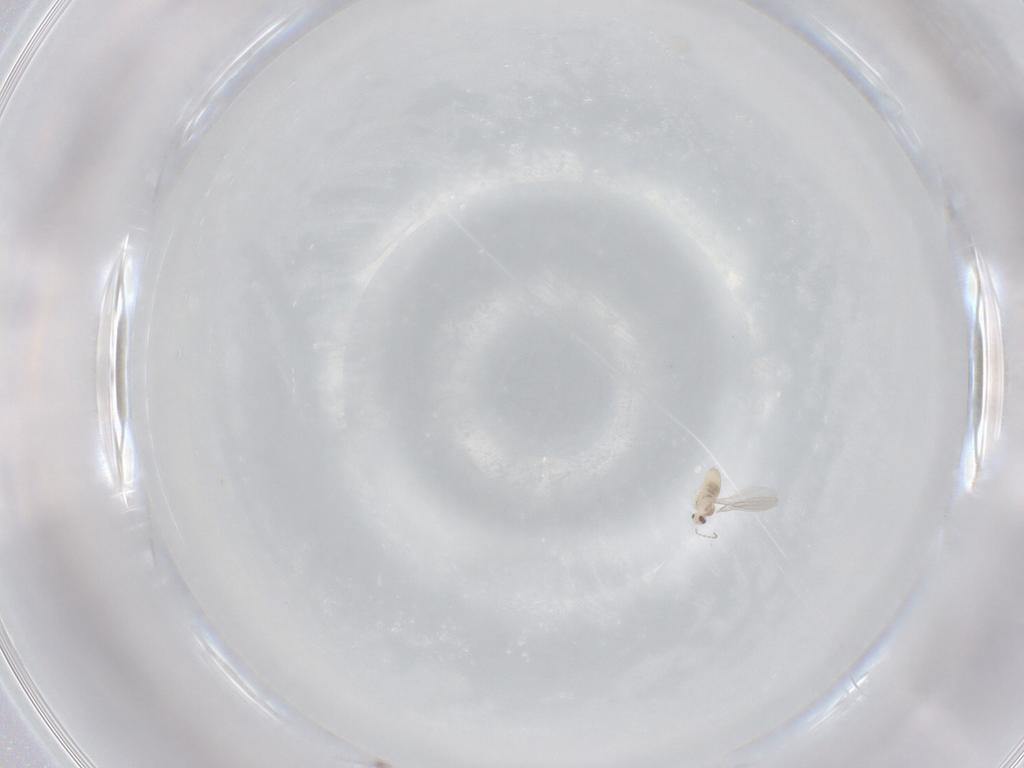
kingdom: Animalia
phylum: Arthropoda
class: Insecta
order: Diptera
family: Cecidomyiidae
